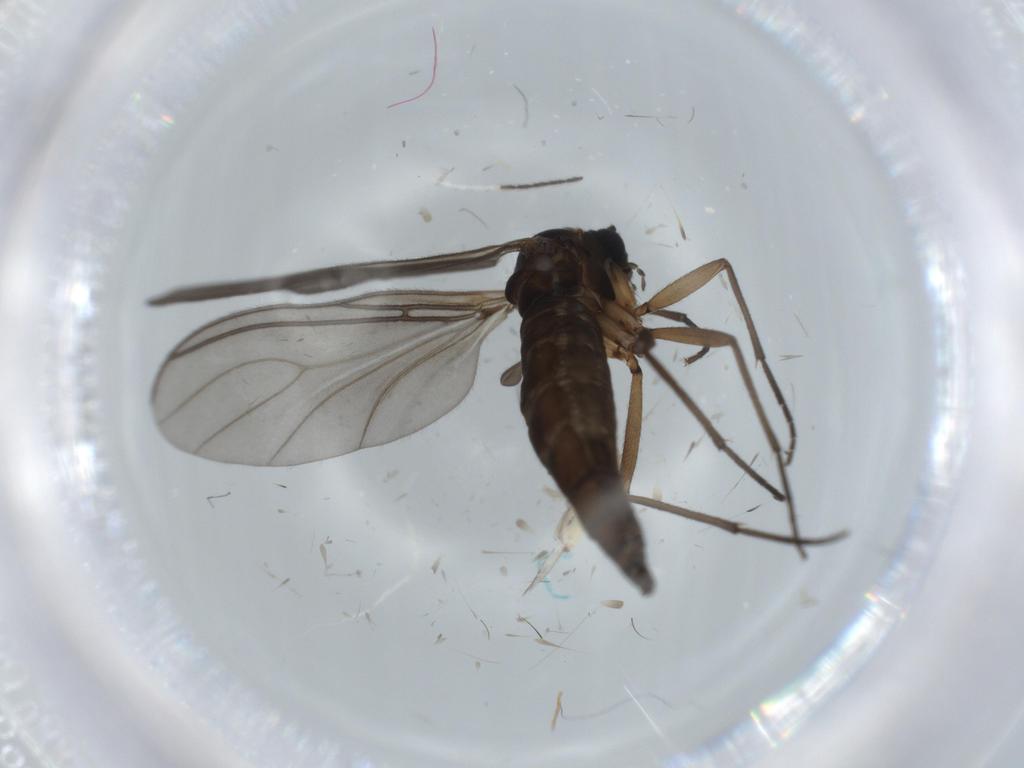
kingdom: Animalia
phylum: Arthropoda
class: Insecta
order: Diptera
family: Sciaridae
